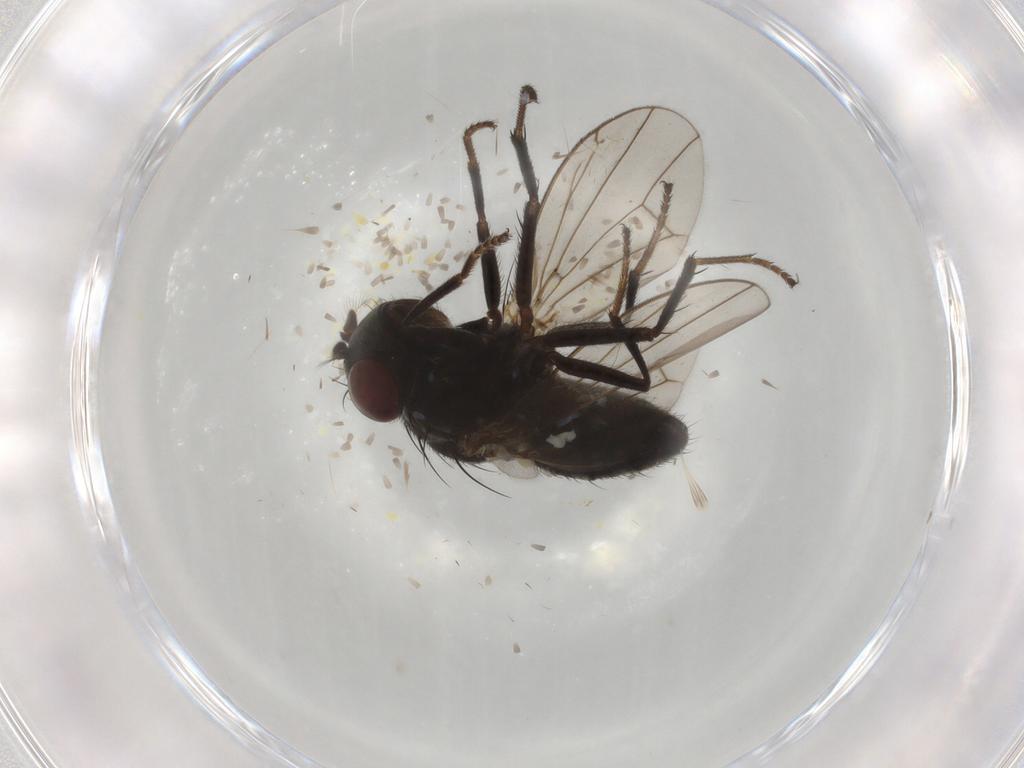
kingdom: Animalia
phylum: Arthropoda
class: Insecta
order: Diptera
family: Ephydridae
